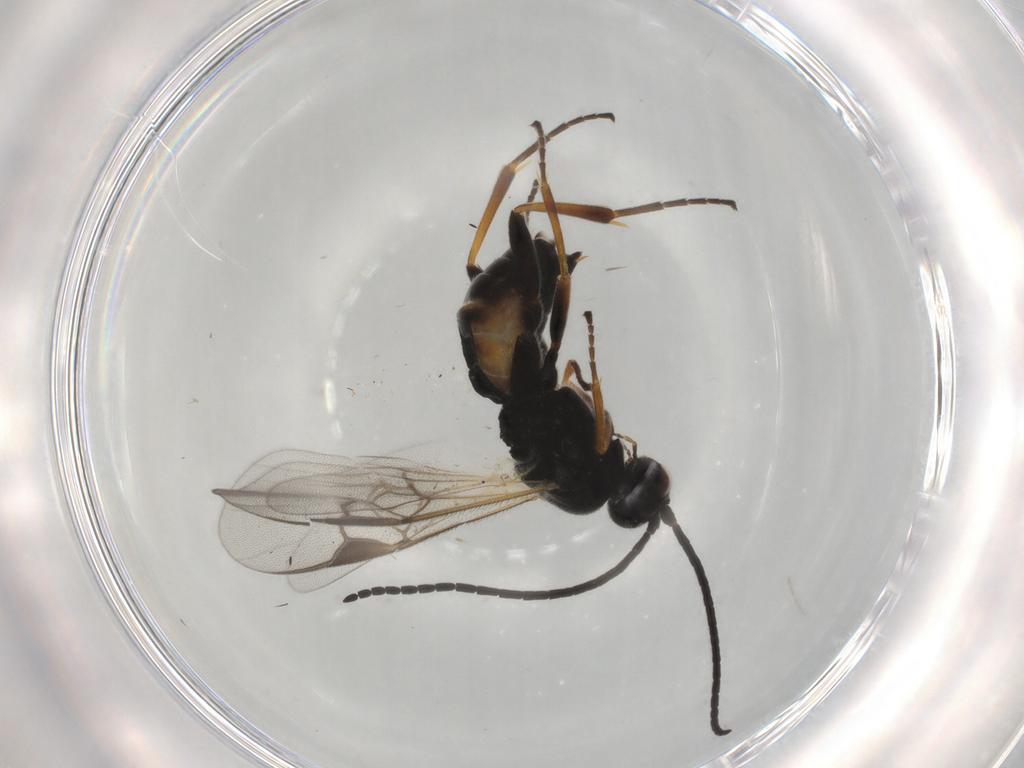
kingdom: Animalia
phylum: Arthropoda
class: Insecta
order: Hymenoptera
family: Braconidae
